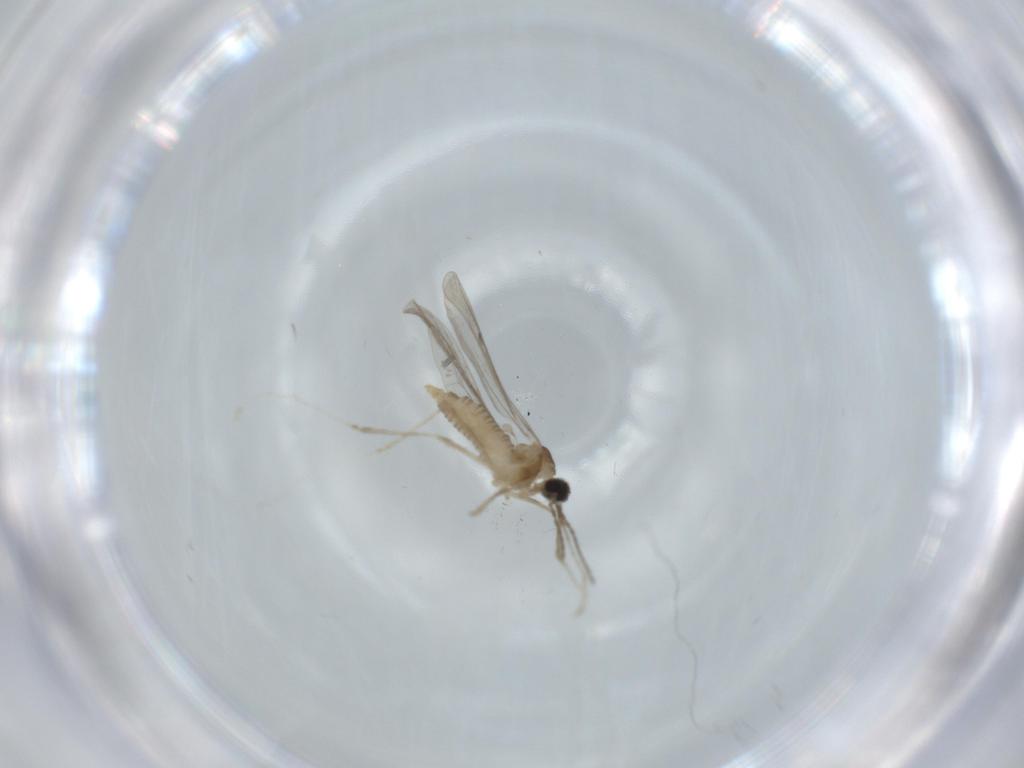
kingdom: Animalia
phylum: Arthropoda
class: Insecta
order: Diptera
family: Cecidomyiidae
